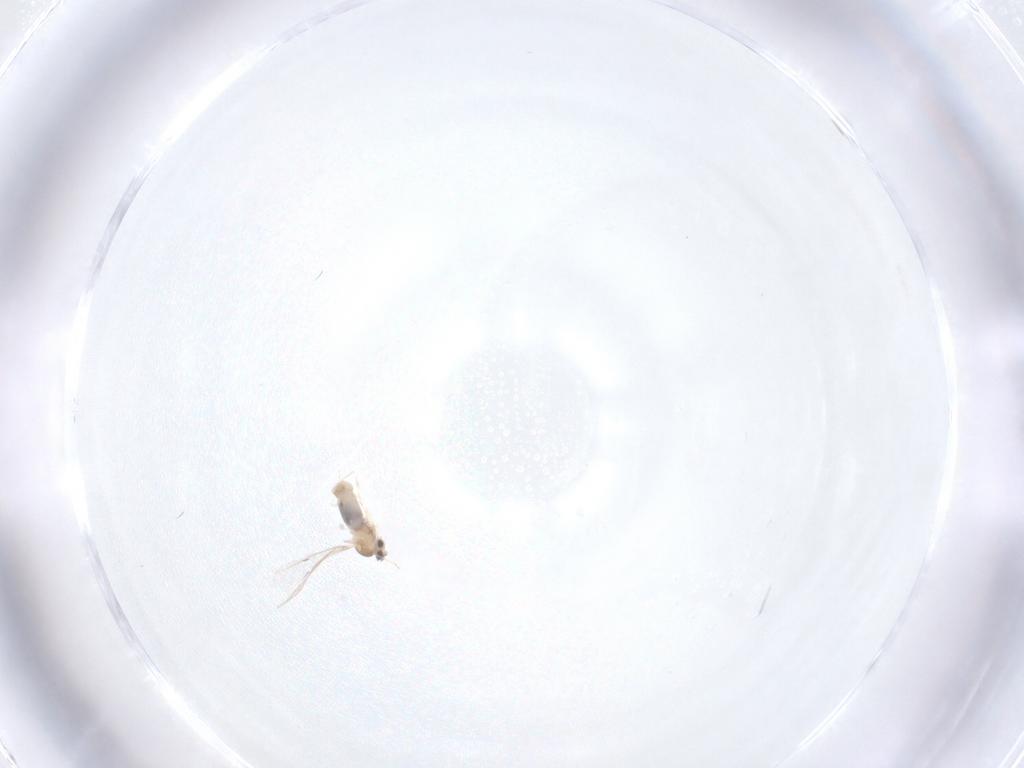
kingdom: Animalia
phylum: Arthropoda
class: Insecta
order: Diptera
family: Cecidomyiidae
